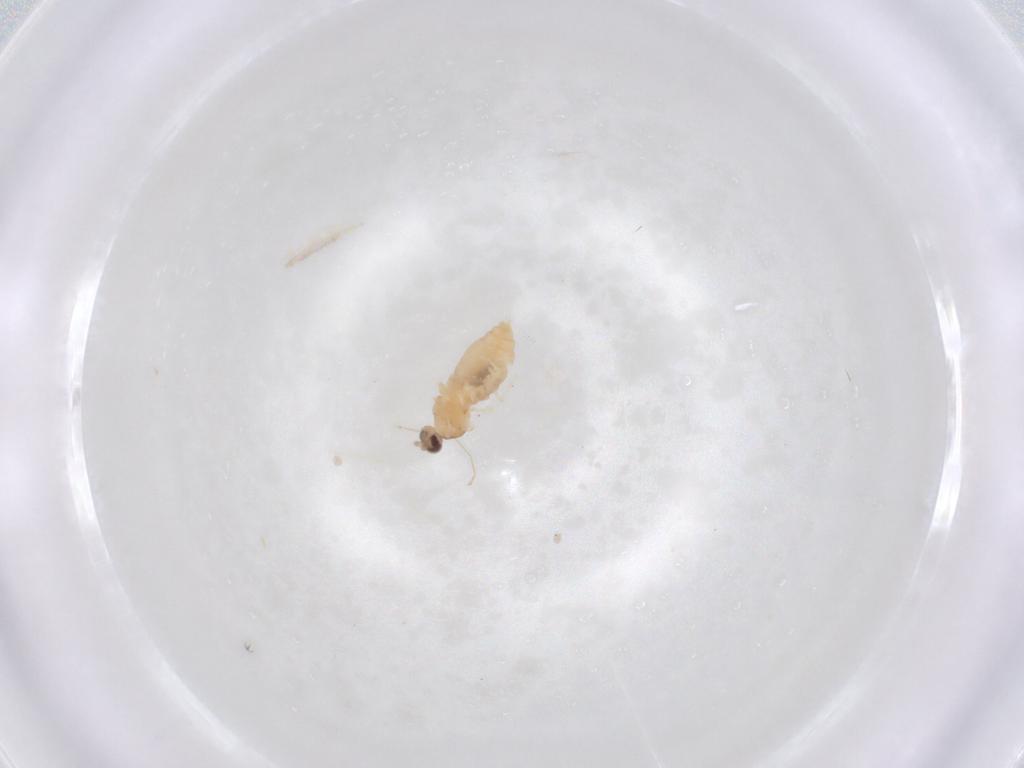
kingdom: Animalia
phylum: Arthropoda
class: Insecta
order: Diptera
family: Cecidomyiidae
